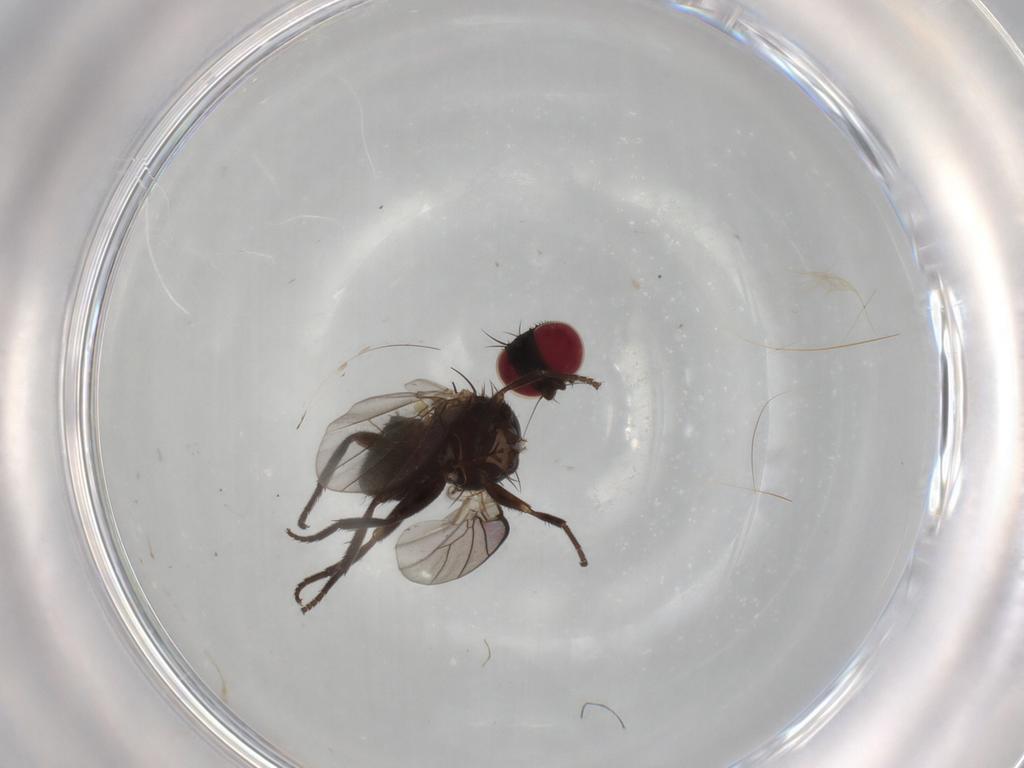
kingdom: Animalia
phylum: Arthropoda
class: Insecta
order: Diptera
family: Agromyzidae
